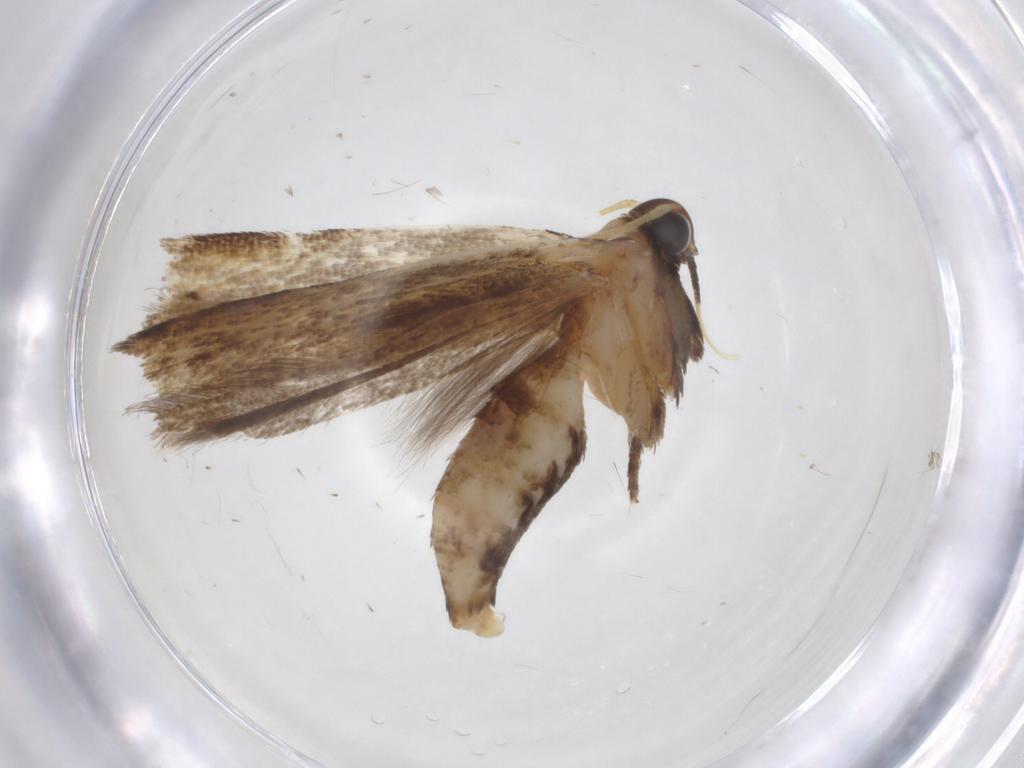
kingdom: Animalia
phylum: Arthropoda
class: Insecta
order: Lepidoptera
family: Gelechiidae
